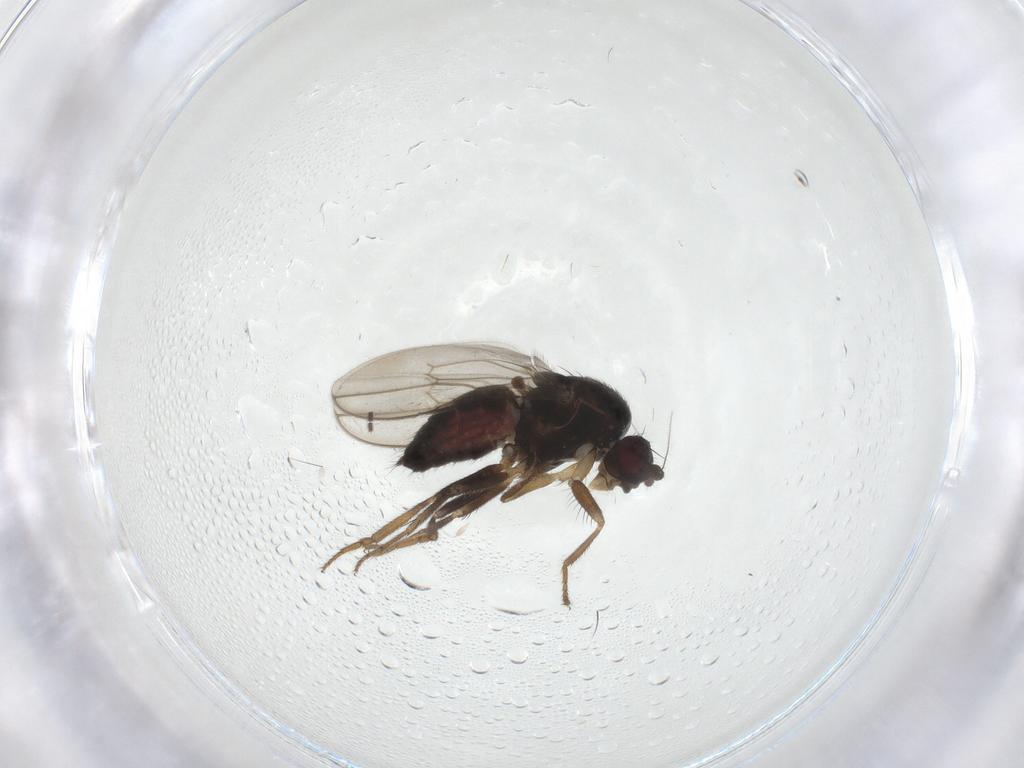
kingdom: Animalia
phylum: Arthropoda
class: Insecta
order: Diptera
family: Sphaeroceridae
